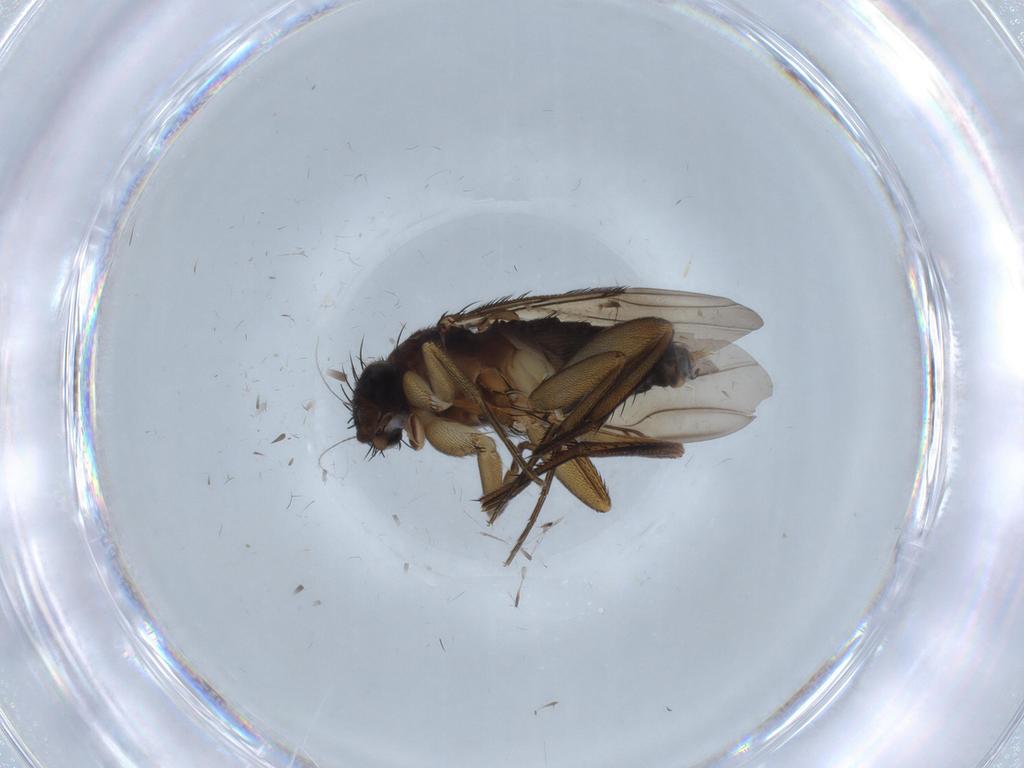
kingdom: Animalia
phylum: Arthropoda
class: Insecta
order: Diptera
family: Phoridae
